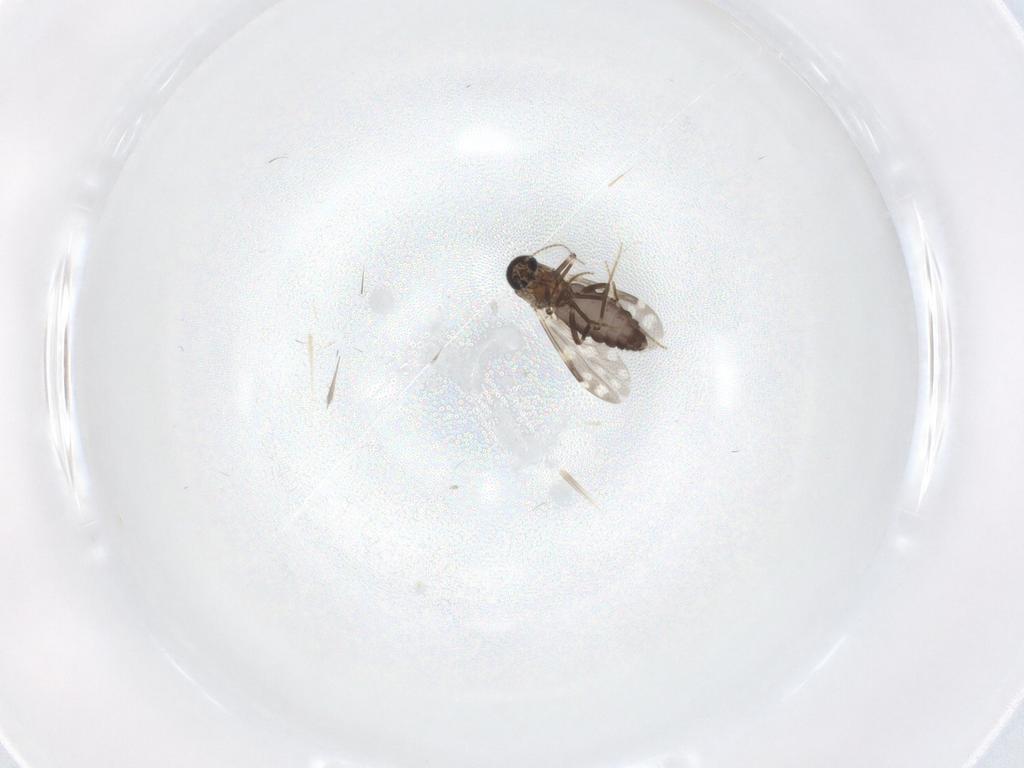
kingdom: Animalia
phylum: Arthropoda
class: Insecta
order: Diptera
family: Ceratopogonidae
